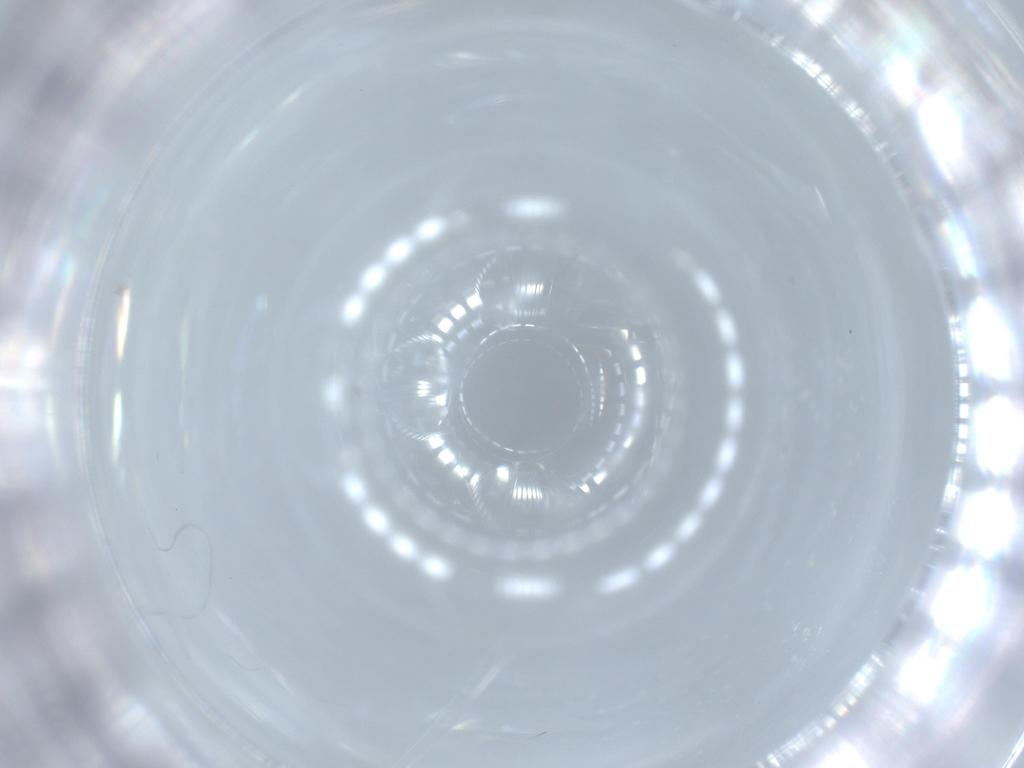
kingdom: Animalia
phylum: Arthropoda
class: Insecta
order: Diptera
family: Cecidomyiidae
